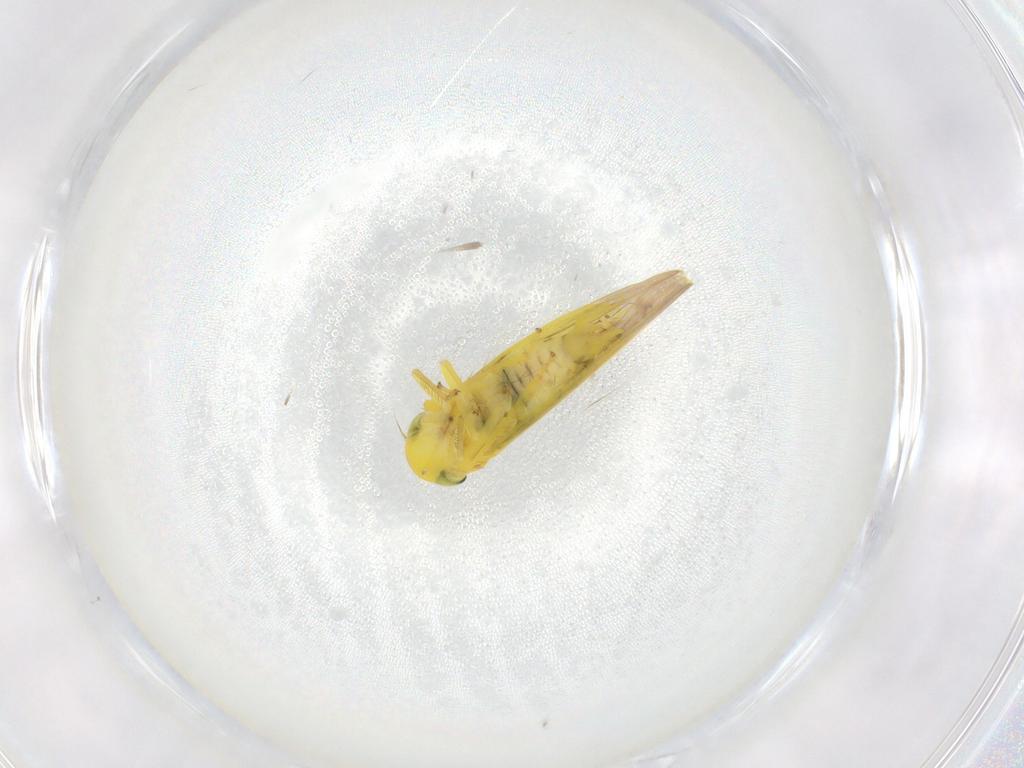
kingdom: Animalia
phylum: Arthropoda
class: Insecta
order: Hemiptera
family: Cicadellidae
